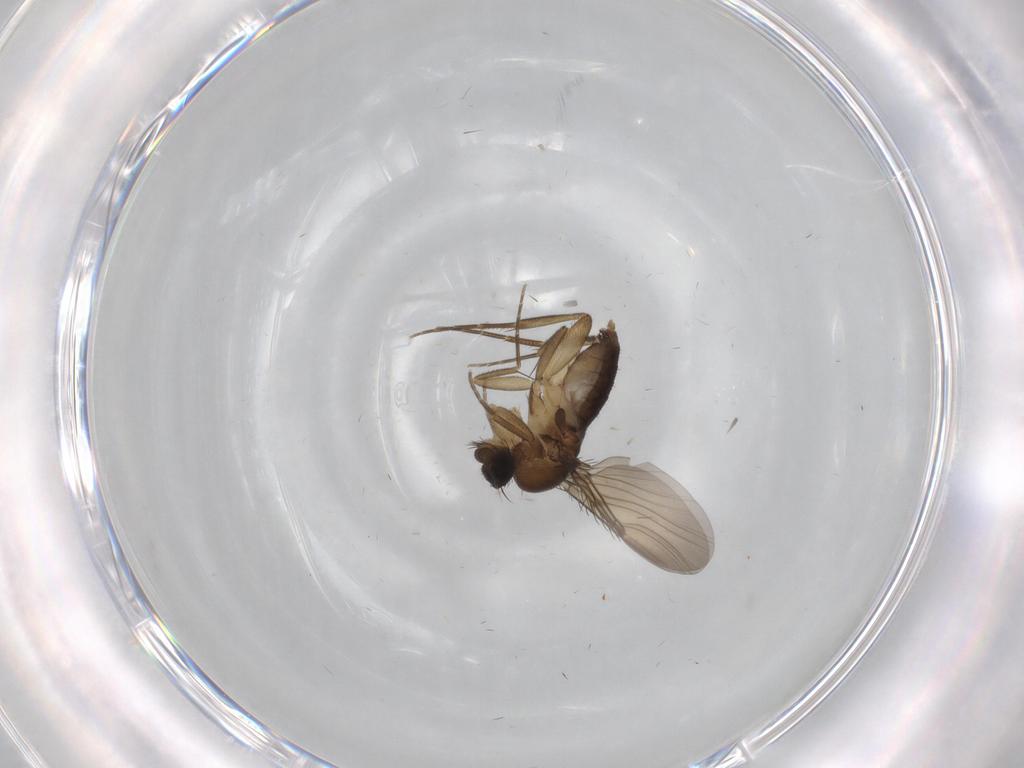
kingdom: Animalia
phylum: Arthropoda
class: Insecta
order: Diptera
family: Phoridae
